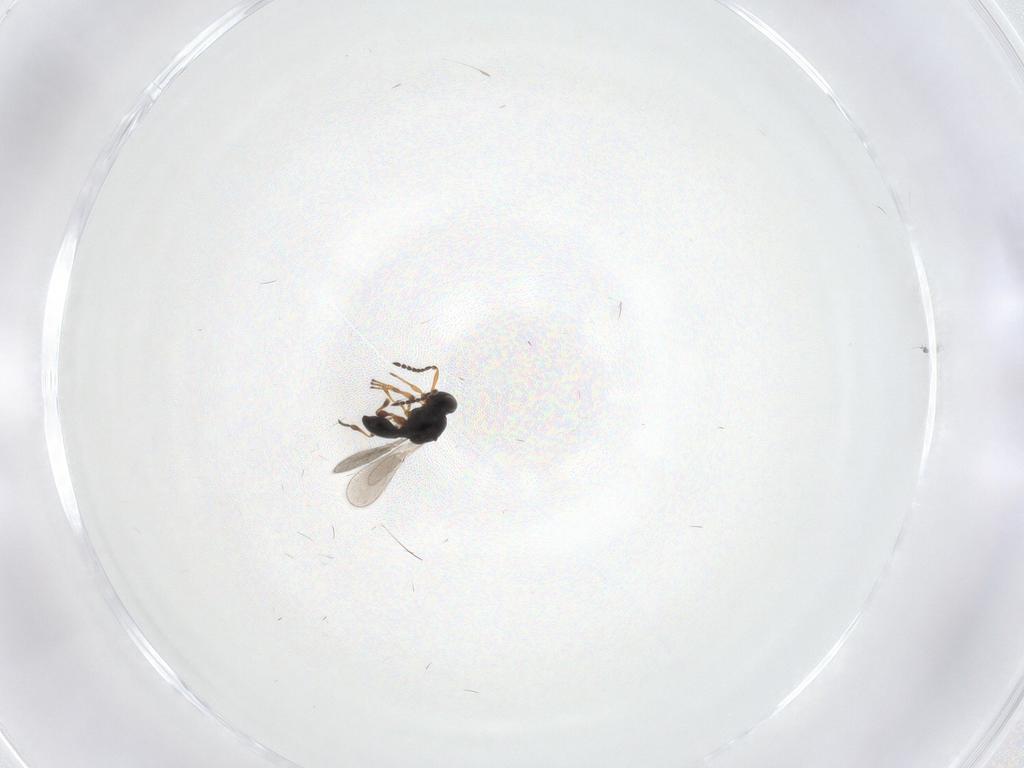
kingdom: Animalia
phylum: Arthropoda
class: Insecta
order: Hymenoptera
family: Platygastridae
